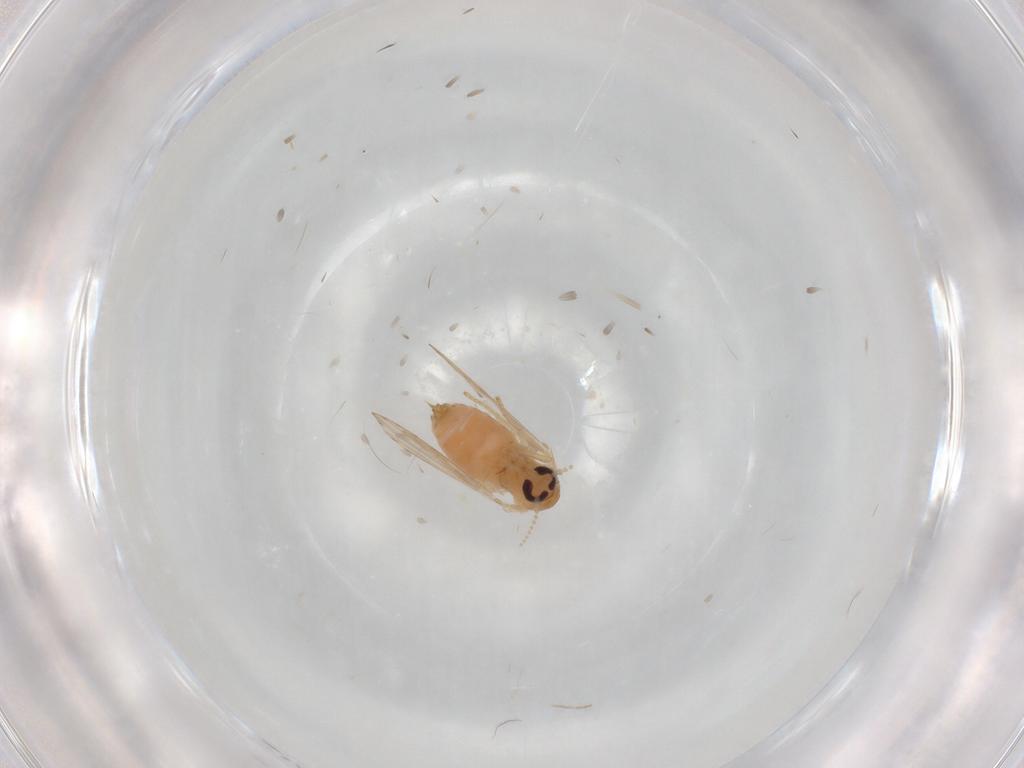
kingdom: Animalia
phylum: Arthropoda
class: Insecta
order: Diptera
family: Psychodidae
